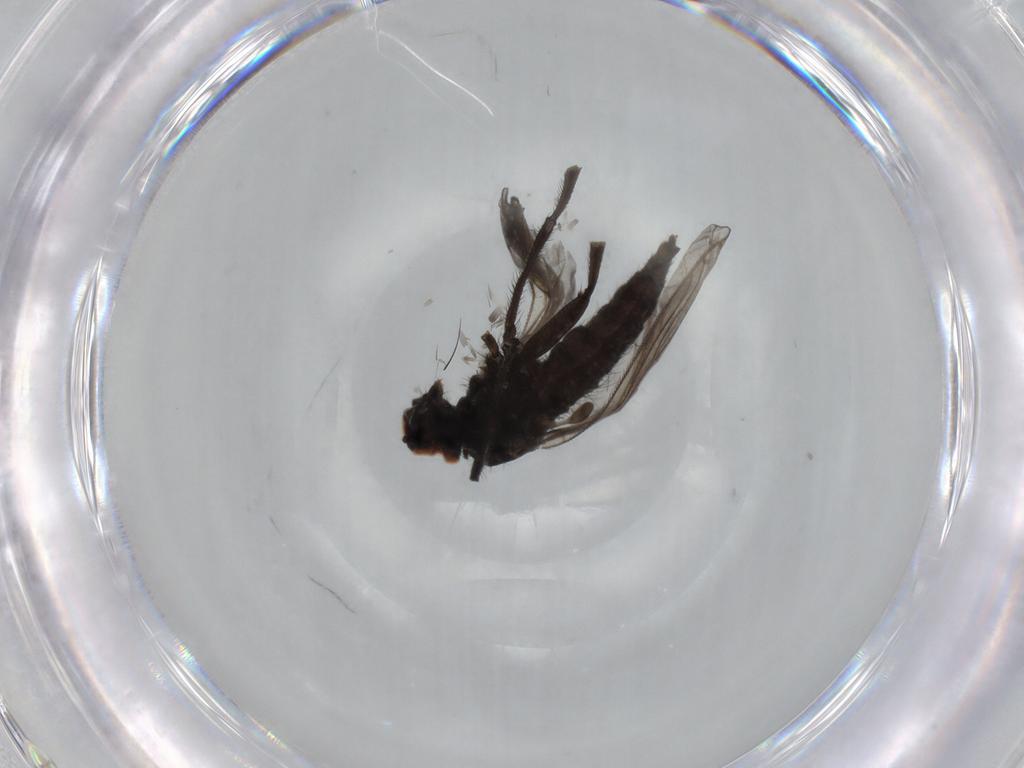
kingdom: Animalia
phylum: Arthropoda
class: Insecta
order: Diptera
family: Hybotidae
